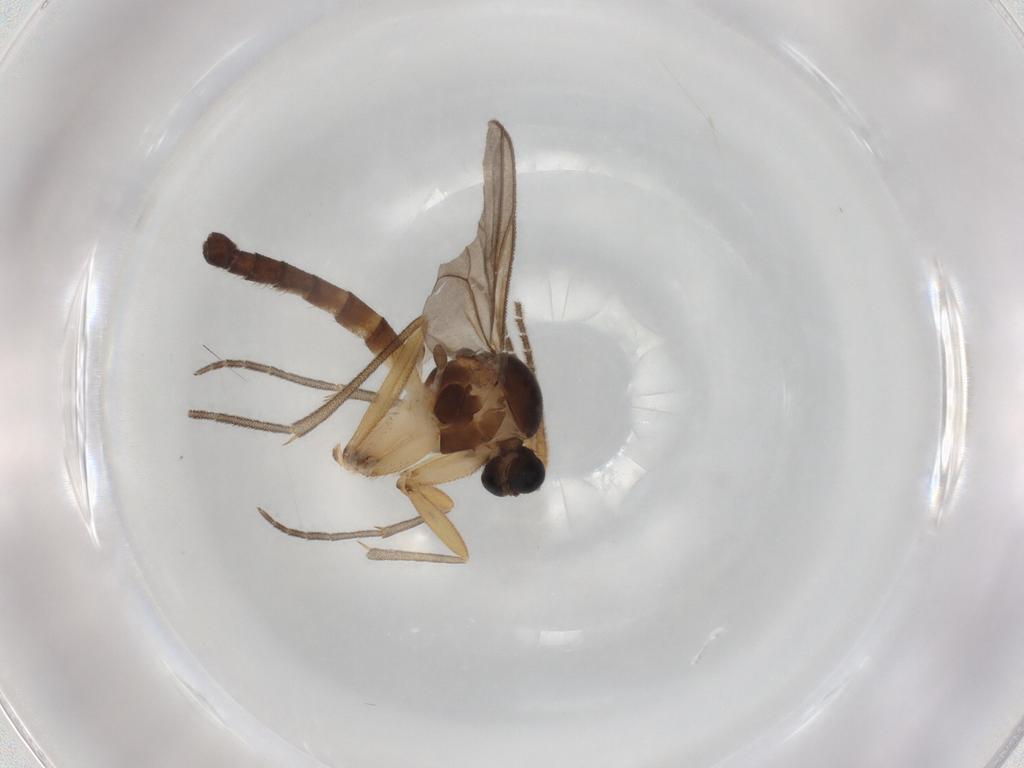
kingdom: Animalia
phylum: Arthropoda
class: Insecta
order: Diptera
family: Mycetophilidae
